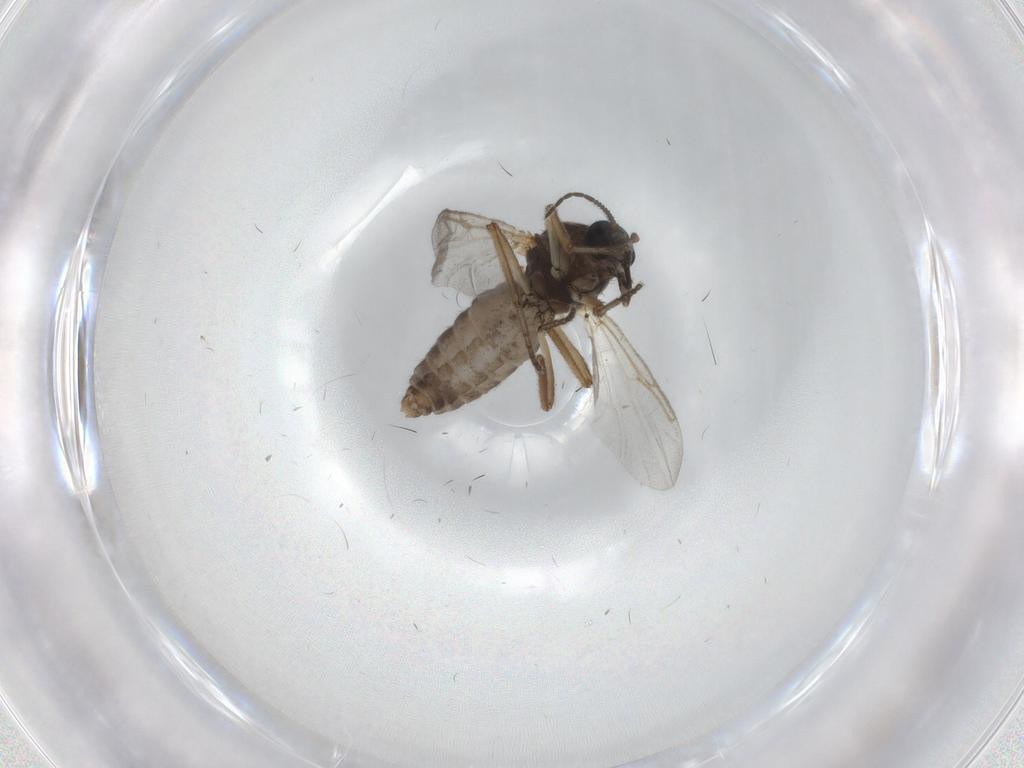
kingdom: Animalia
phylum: Arthropoda
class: Insecta
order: Diptera
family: Ceratopogonidae
